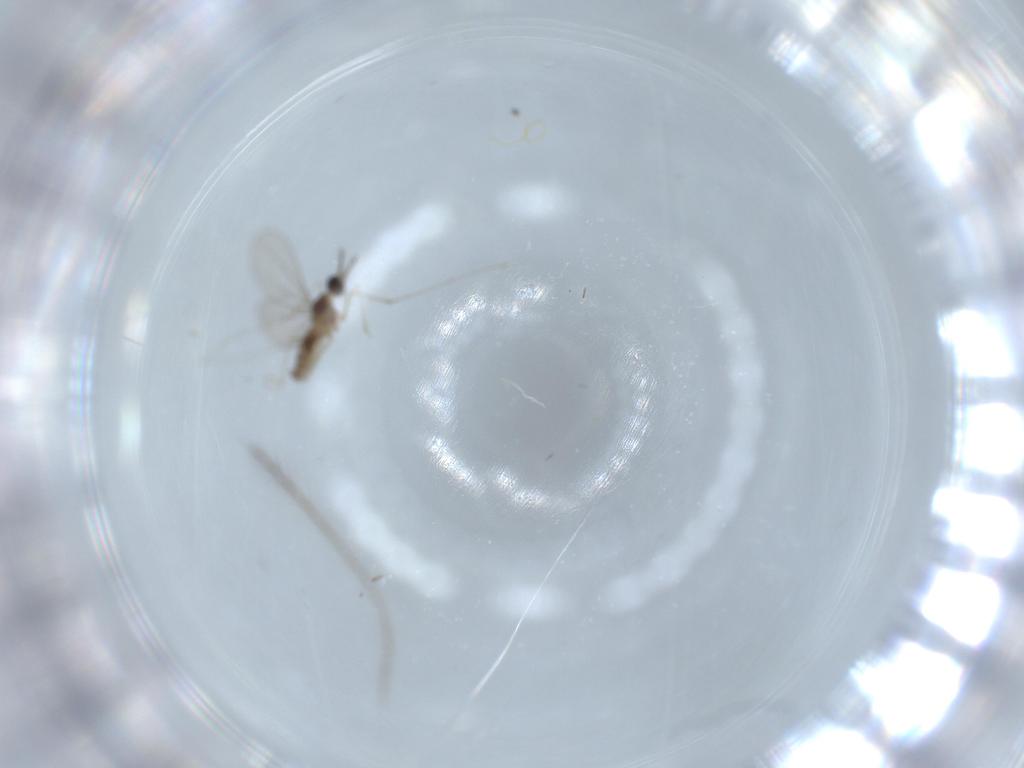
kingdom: Animalia
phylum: Arthropoda
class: Insecta
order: Diptera
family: Cecidomyiidae
